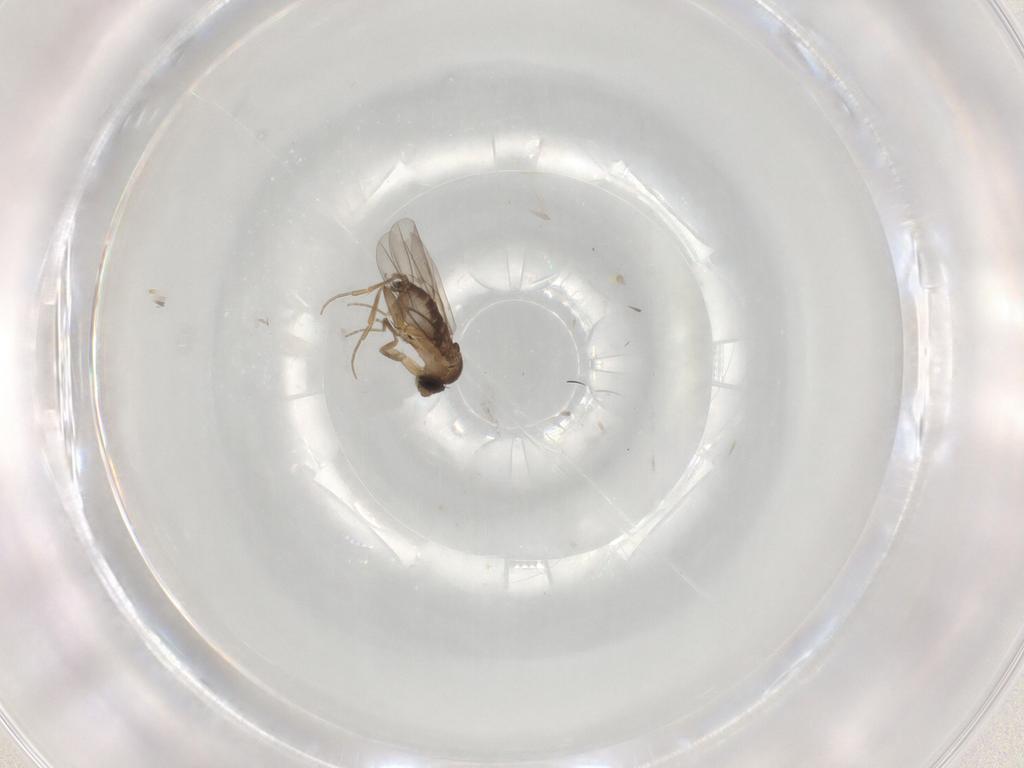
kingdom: Animalia
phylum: Arthropoda
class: Insecta
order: Diptera
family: Phoridae
